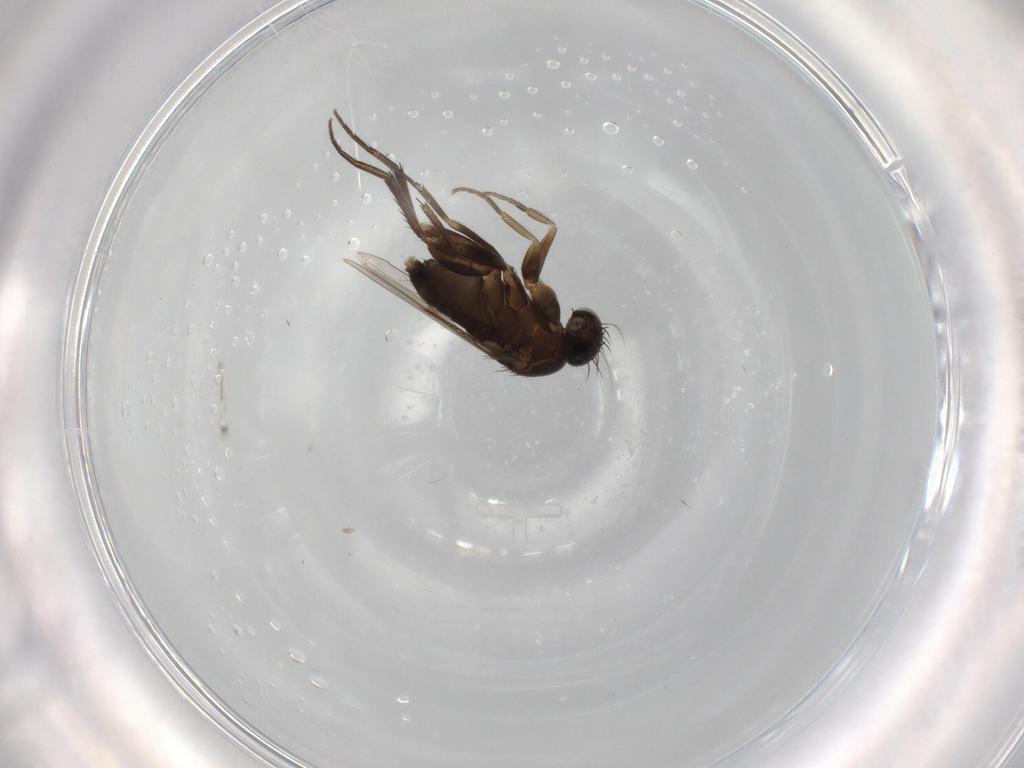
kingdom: Animalia
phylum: Arthropoda
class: Insecta
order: Diptera
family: Phoridae
